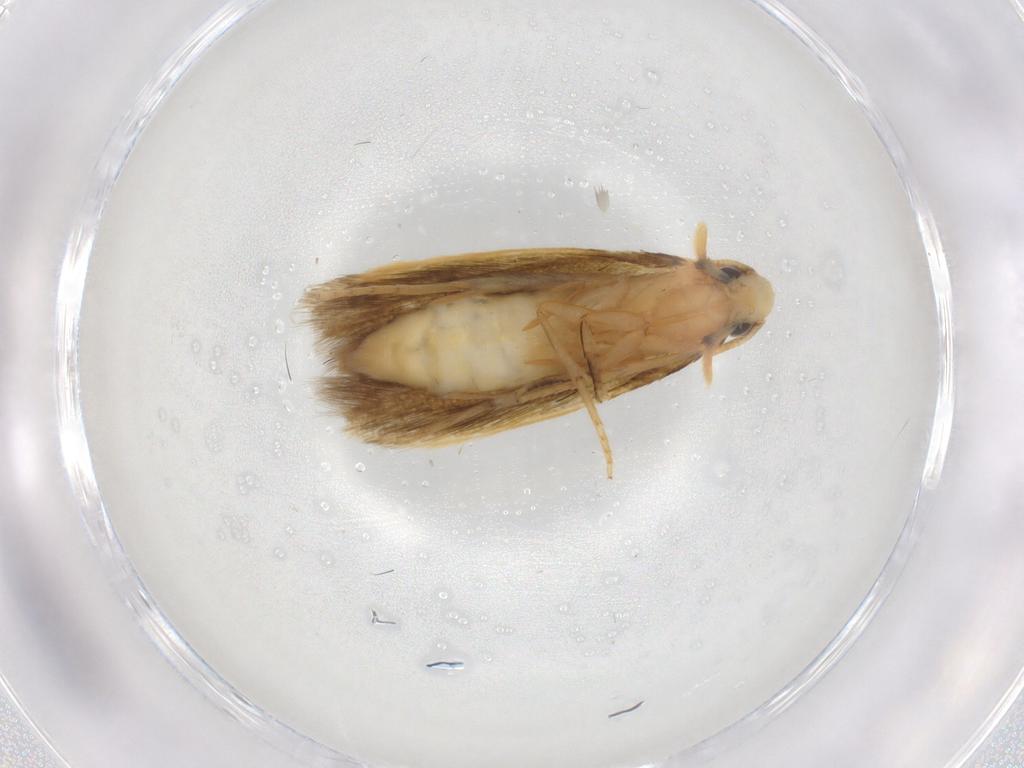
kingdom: Animalia
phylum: Arthropoda
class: Insecta
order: Lepidoptera
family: Tineidae
